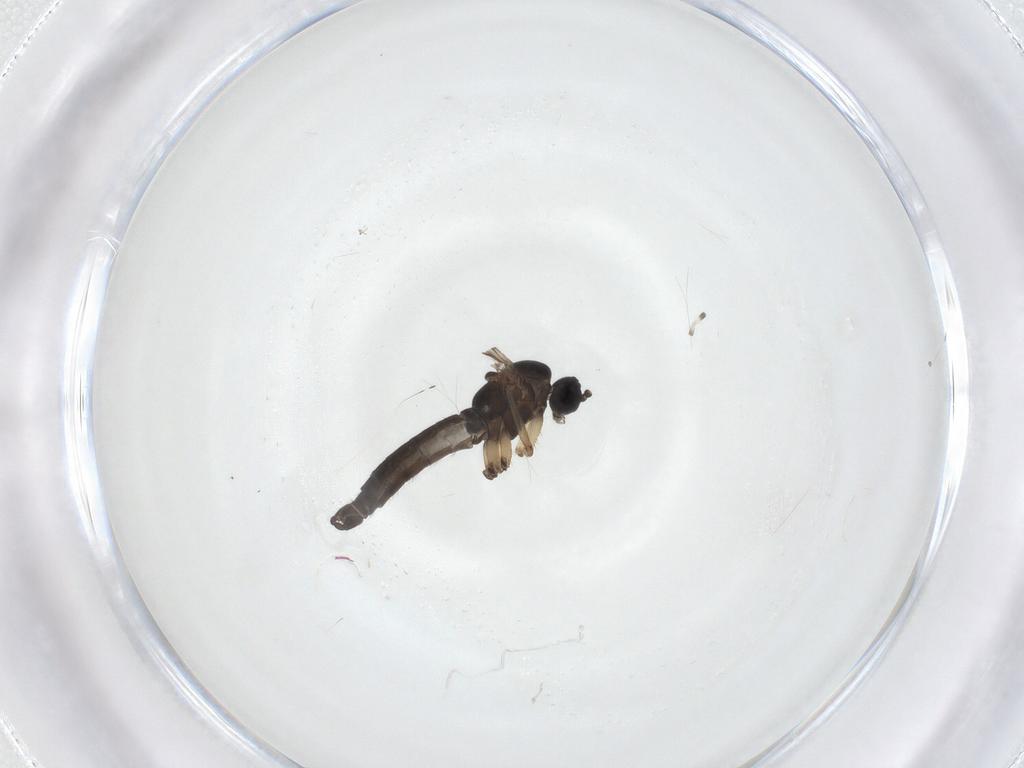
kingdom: Animalia
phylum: Arthropoda
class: Insecta
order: Diptera
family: Sciaridae
